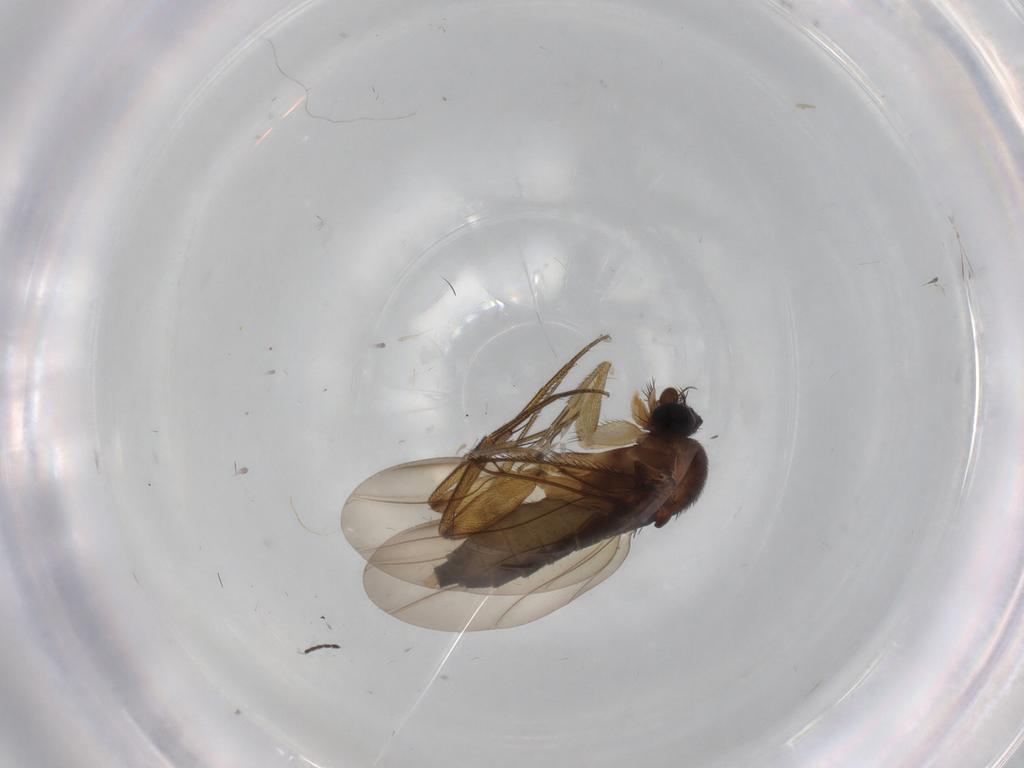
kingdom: Animalia
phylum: Arthropoda
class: Insecta
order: Diptera
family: Phoridae
